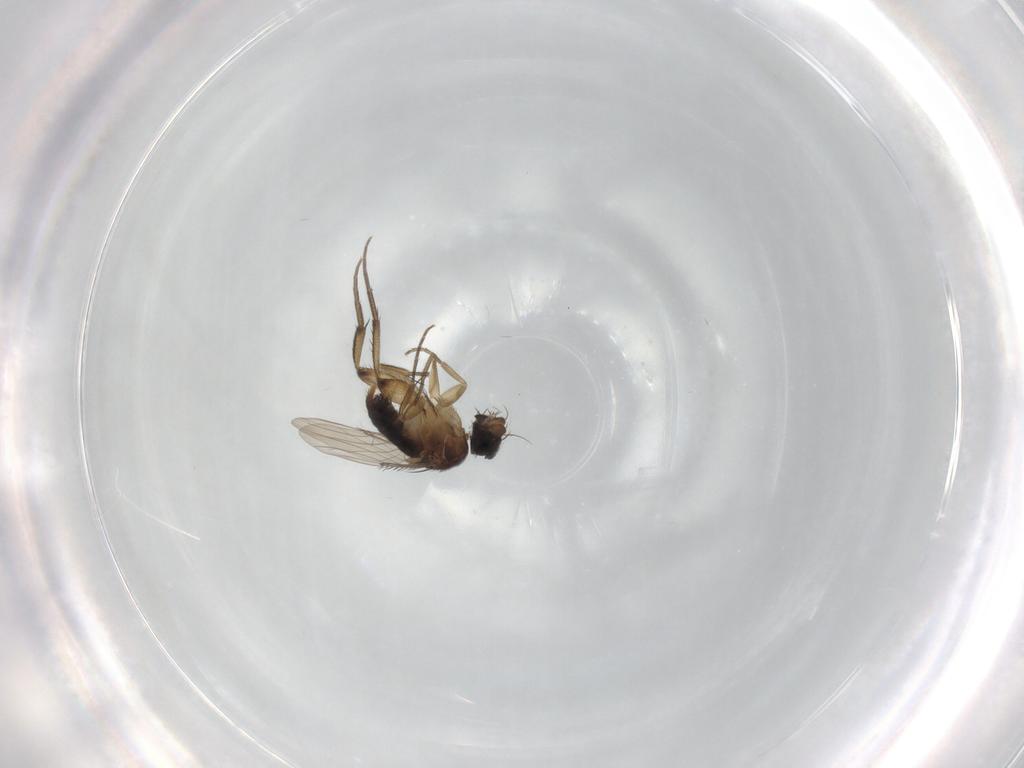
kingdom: Animalia
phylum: Arthropoda
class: Insecta
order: Diptera
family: Phoridae
